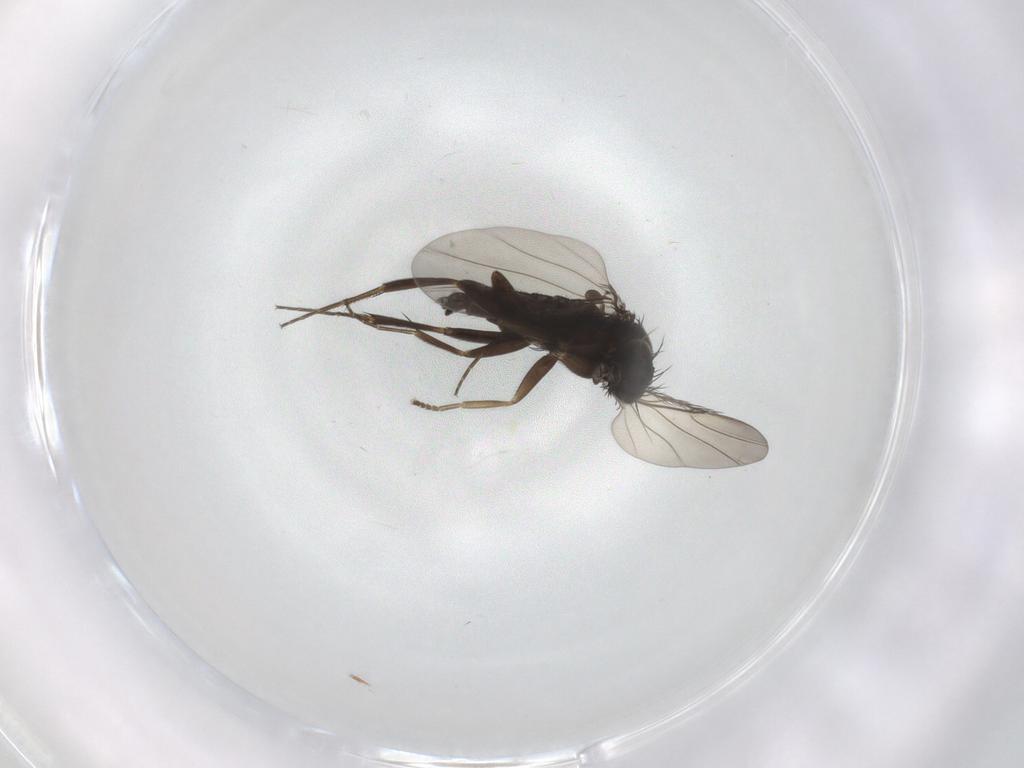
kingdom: Animalia
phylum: Arthropoda
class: Insecta
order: Diptera
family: Phoridae
